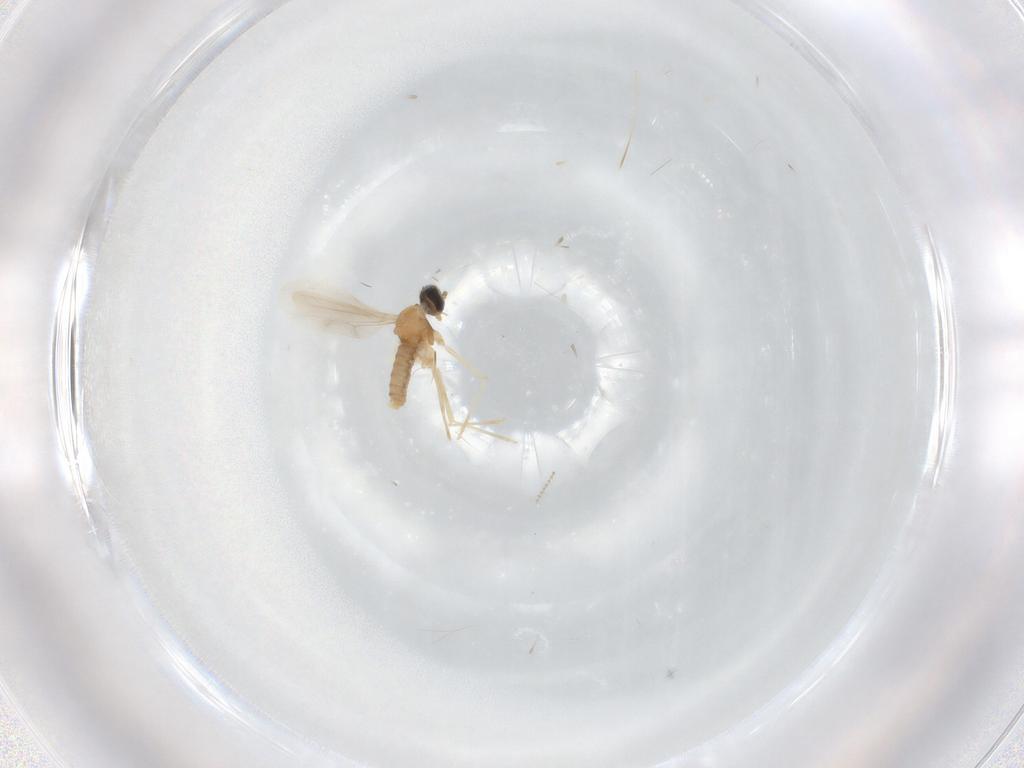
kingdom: Animalia
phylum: Arthropoda
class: Insecta
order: Diptera
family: Cecidomyiidae
